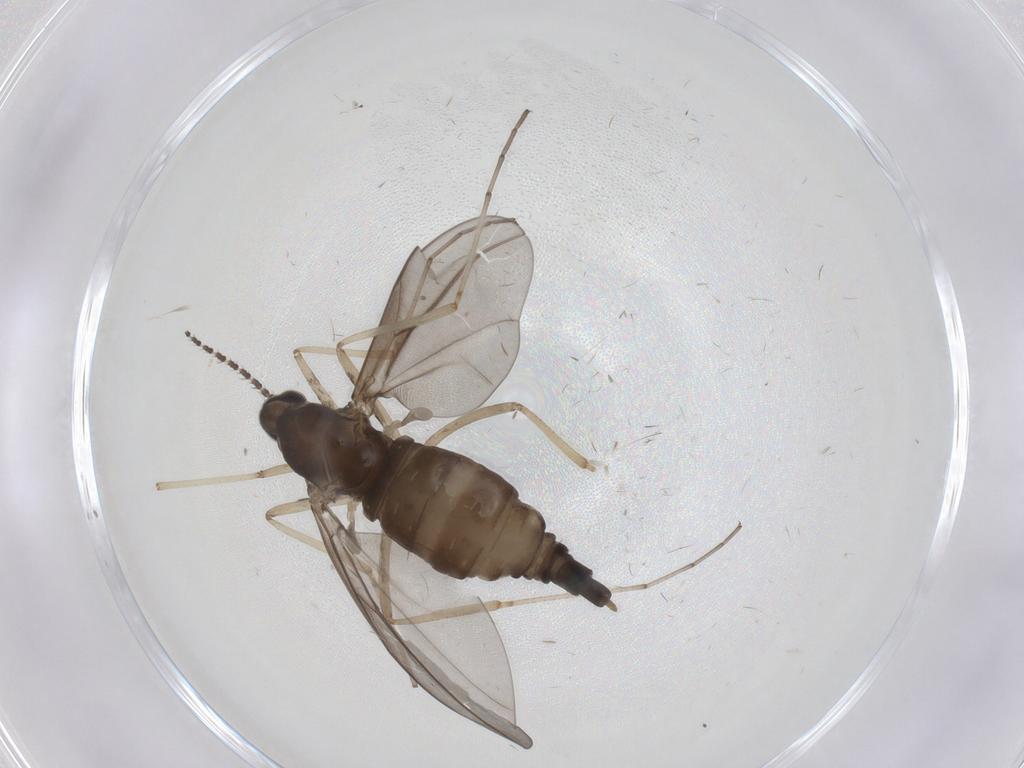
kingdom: Animalia
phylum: Arthropoda
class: Insecta
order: Diptera
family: Cecidomyiidae
